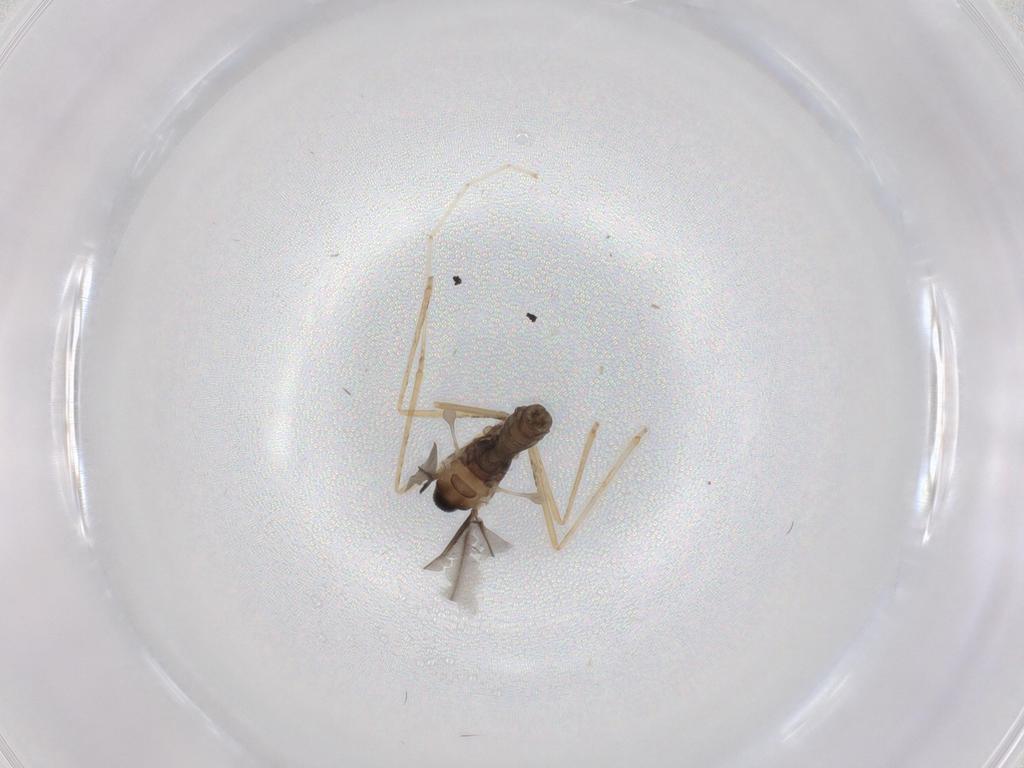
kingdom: Animalia
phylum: Arthropoda
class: Insecta
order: Diptera
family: Cecidomyiidae
